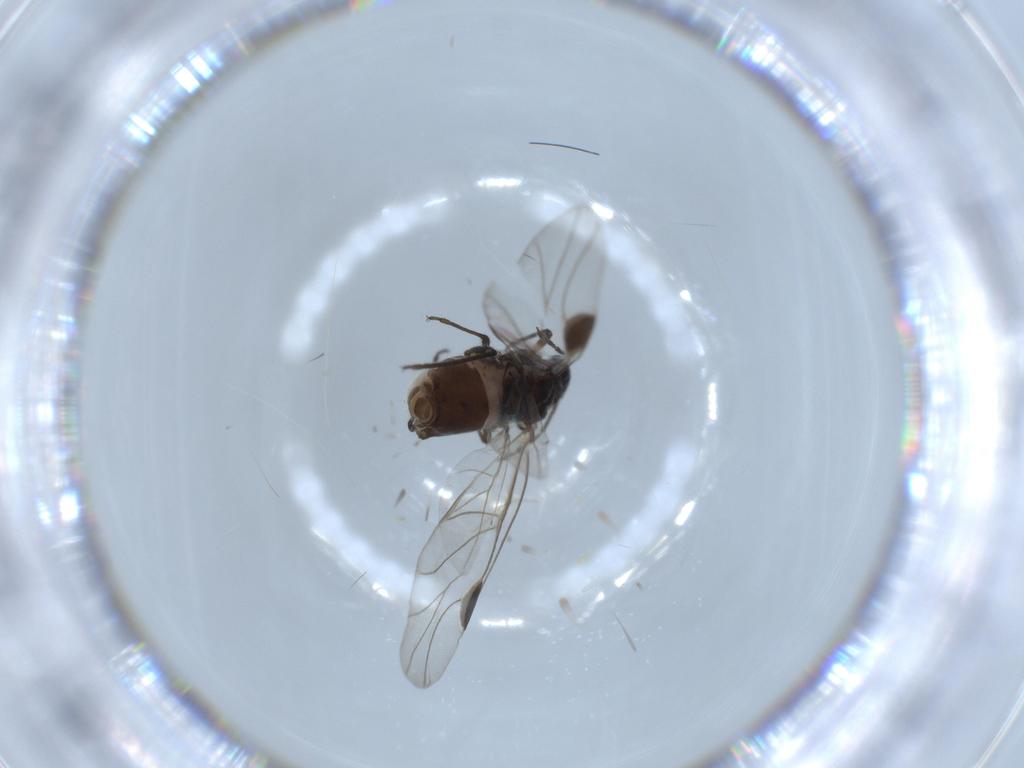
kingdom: Animalia
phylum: Arthropoda
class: Insecta
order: Hemiptera
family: Aphididae
